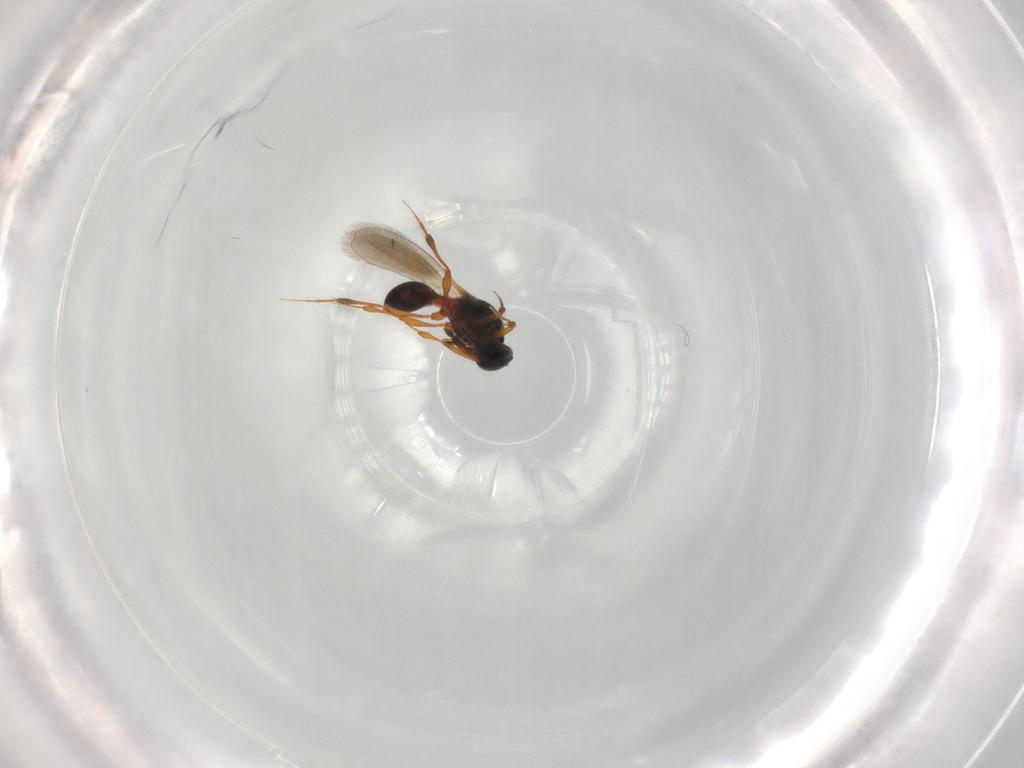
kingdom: Animalia
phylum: Arthropoda
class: Insecta
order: Hymenoptera
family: Platygastridae
